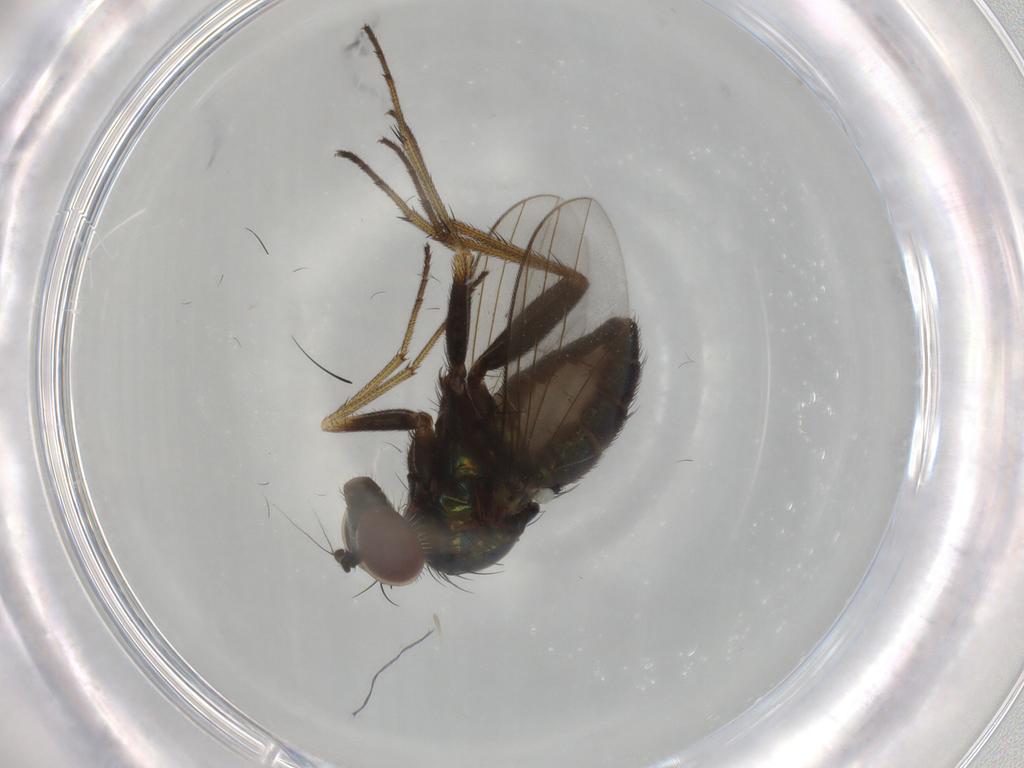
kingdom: Animalia
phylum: Arthropoda
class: Insecta
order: Diptera
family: Dolichopodidae
